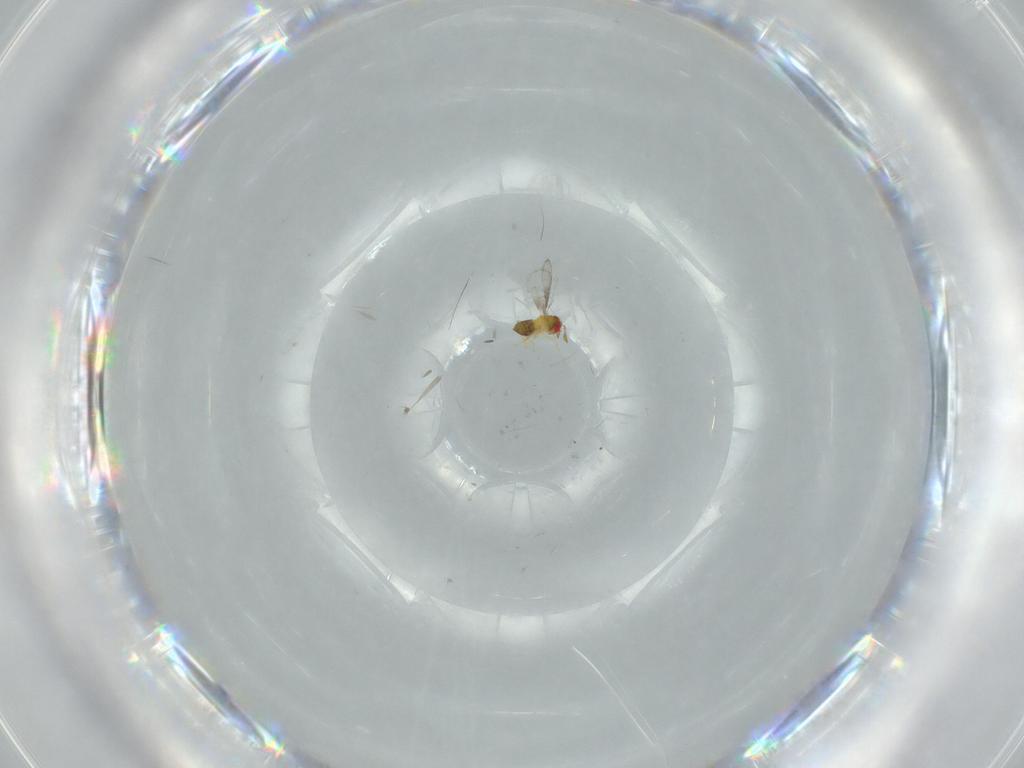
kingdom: Animalia
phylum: Arthropoda
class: Insecta
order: Hymenoptera
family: Trichogrammatidae
